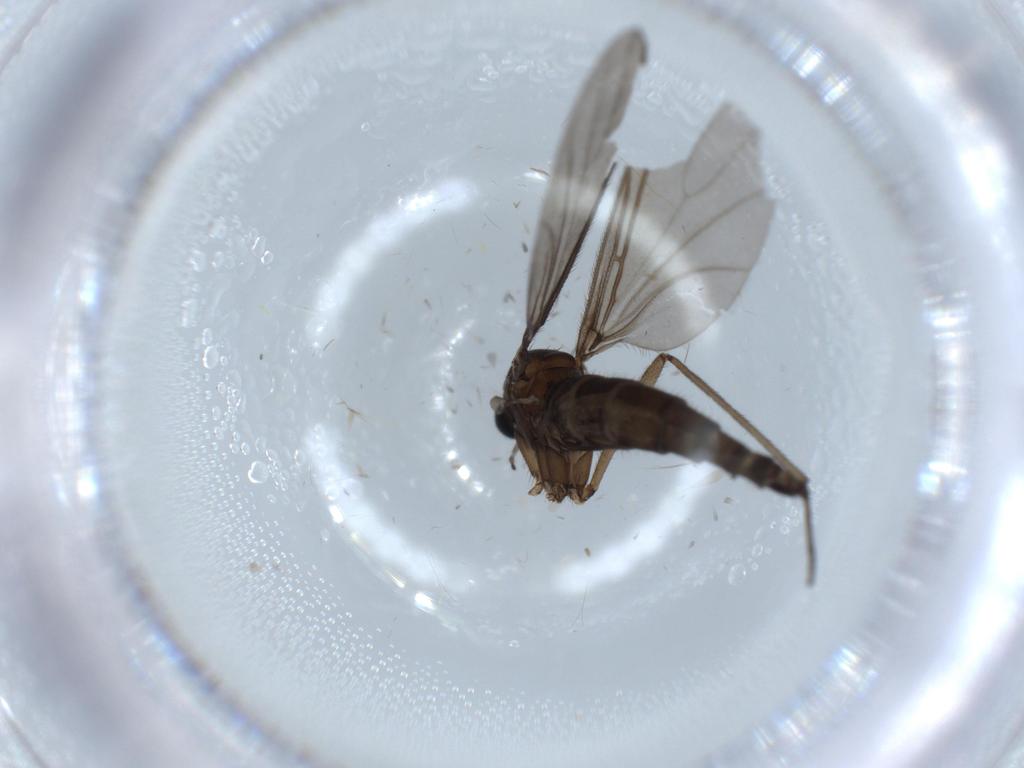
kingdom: Animalia
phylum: Arthropoda
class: Insecta
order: Diptera
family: Sciaridae
